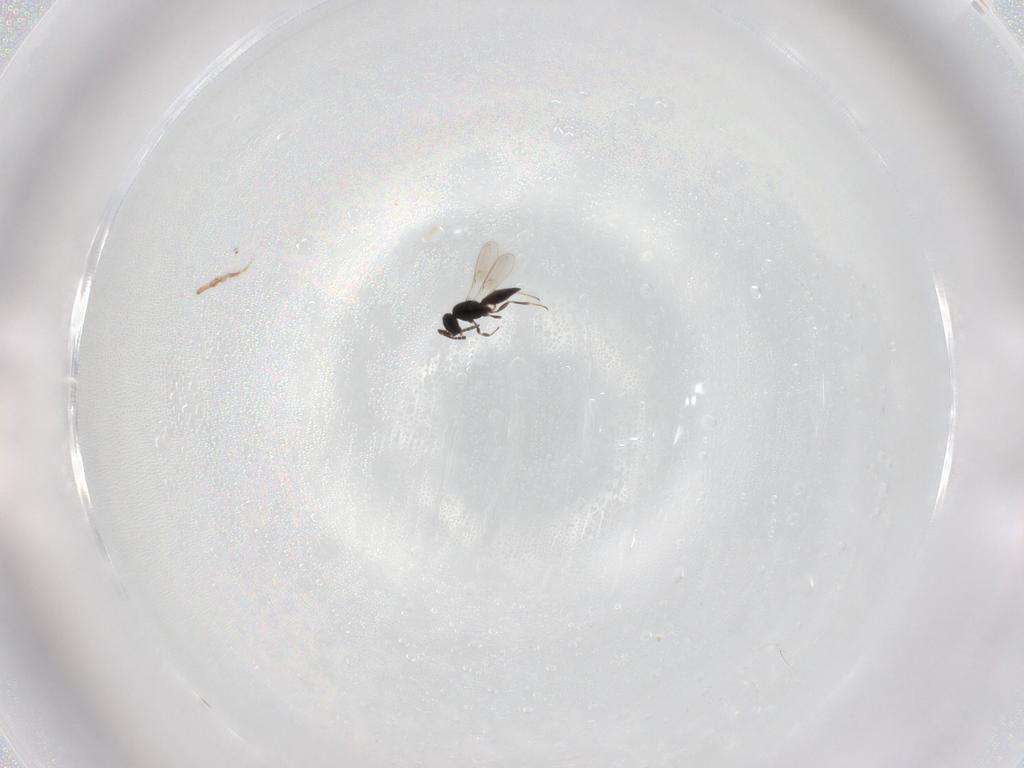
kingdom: Animalia
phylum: Arthropoda
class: Insecta
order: Hymenoptera
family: Scelionidae
